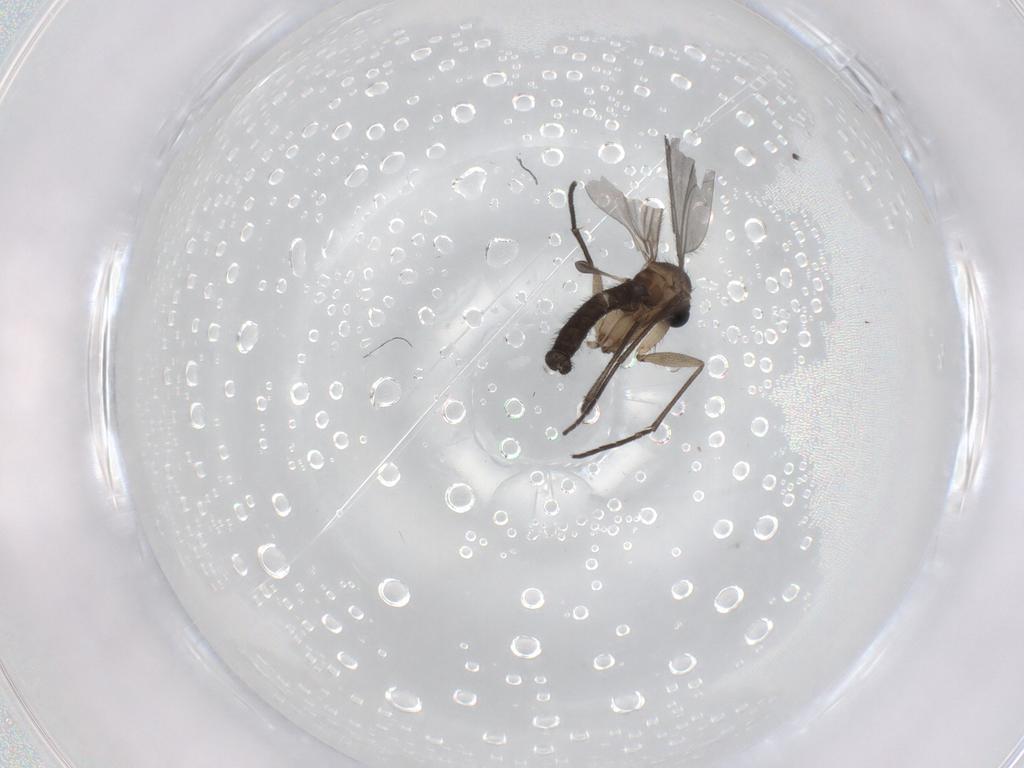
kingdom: Animalia
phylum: Arthropoda
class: Insecta
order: Diptera
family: Sciaridae
